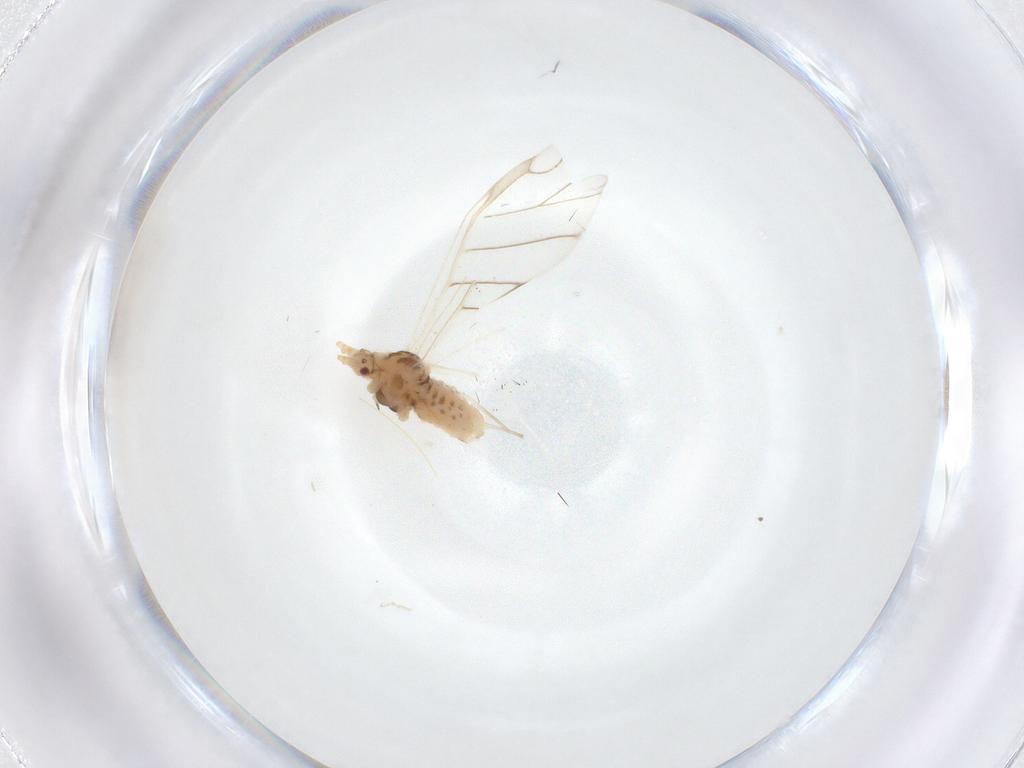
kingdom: Animalia
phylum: Arthropoda
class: Insecta
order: Hemiptera
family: Aphididae
